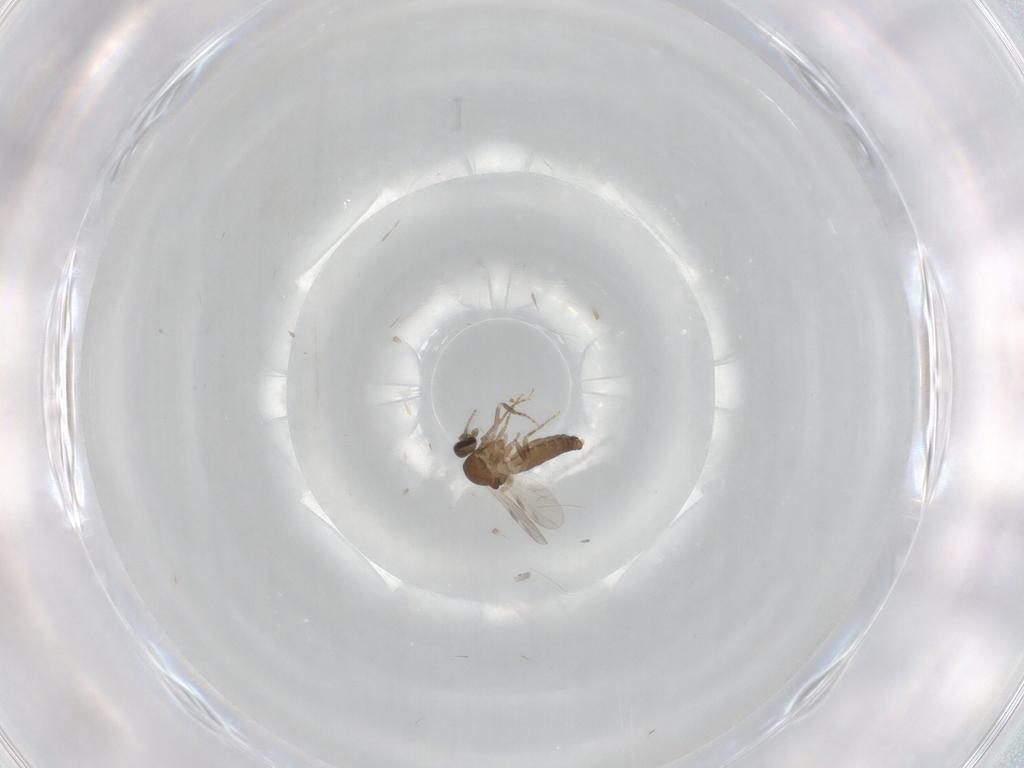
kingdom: Animalia
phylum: Arthropoda
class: Insecta
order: Diptera
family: Ceratopogonidae
